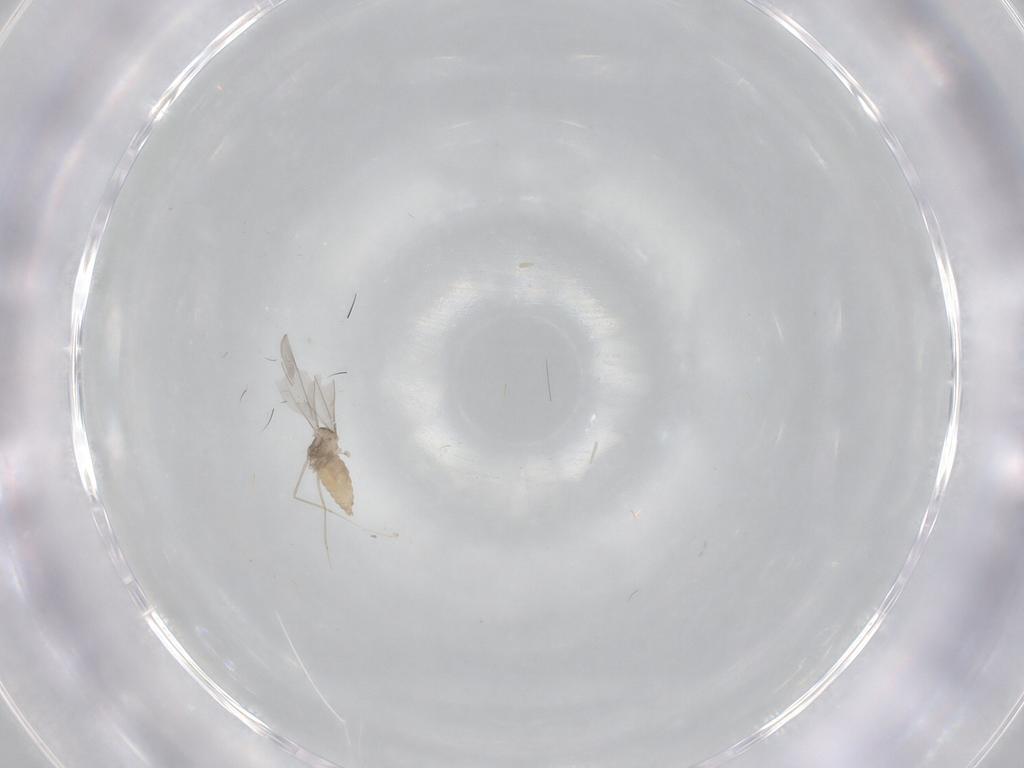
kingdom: Animalia
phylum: Arthropoda
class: Insecta
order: Diptera
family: Cecidomyiidae
